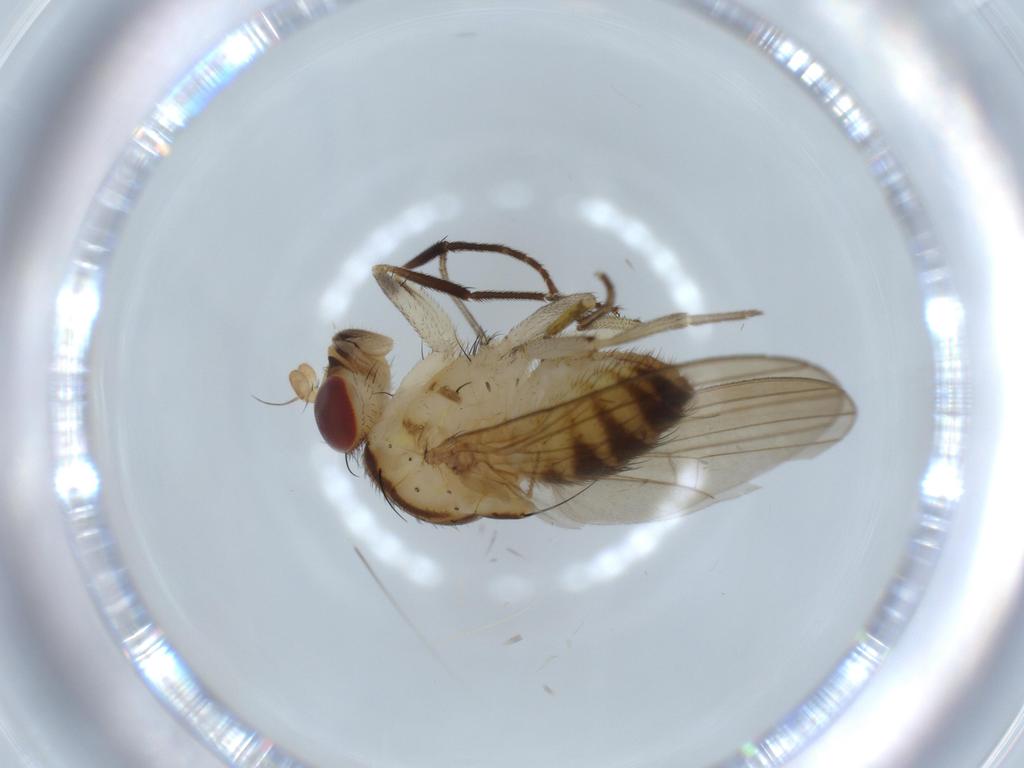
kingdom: Animalia
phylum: Arthropoda
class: Insecta
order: Diptera
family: Ceratopogonidae
